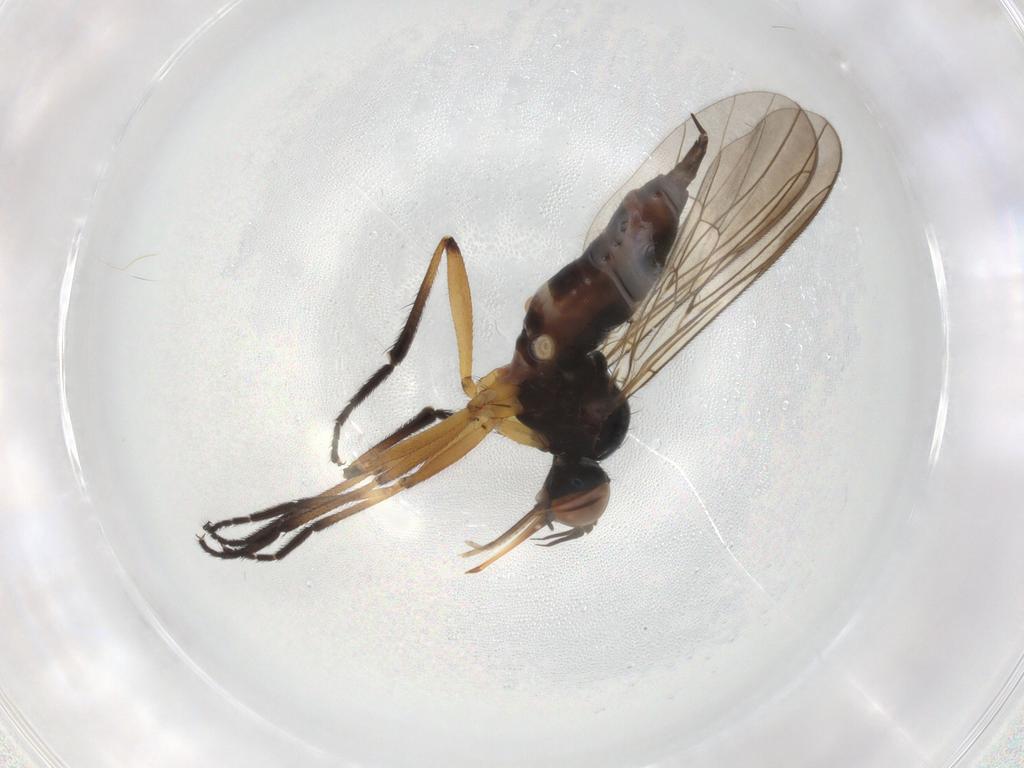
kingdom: Animalia
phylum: Arthropoda
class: Insecta
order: Diptera
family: Empididae
